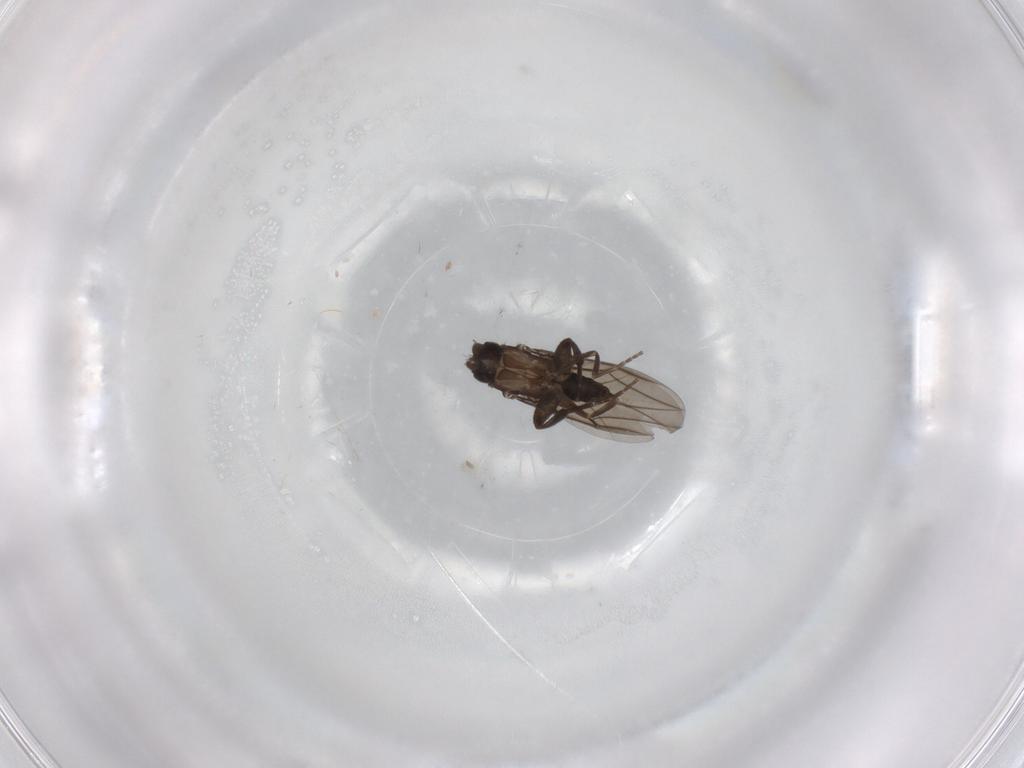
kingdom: Animalia
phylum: Arthropoda
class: Insecta
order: Diptera
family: Phoridae
